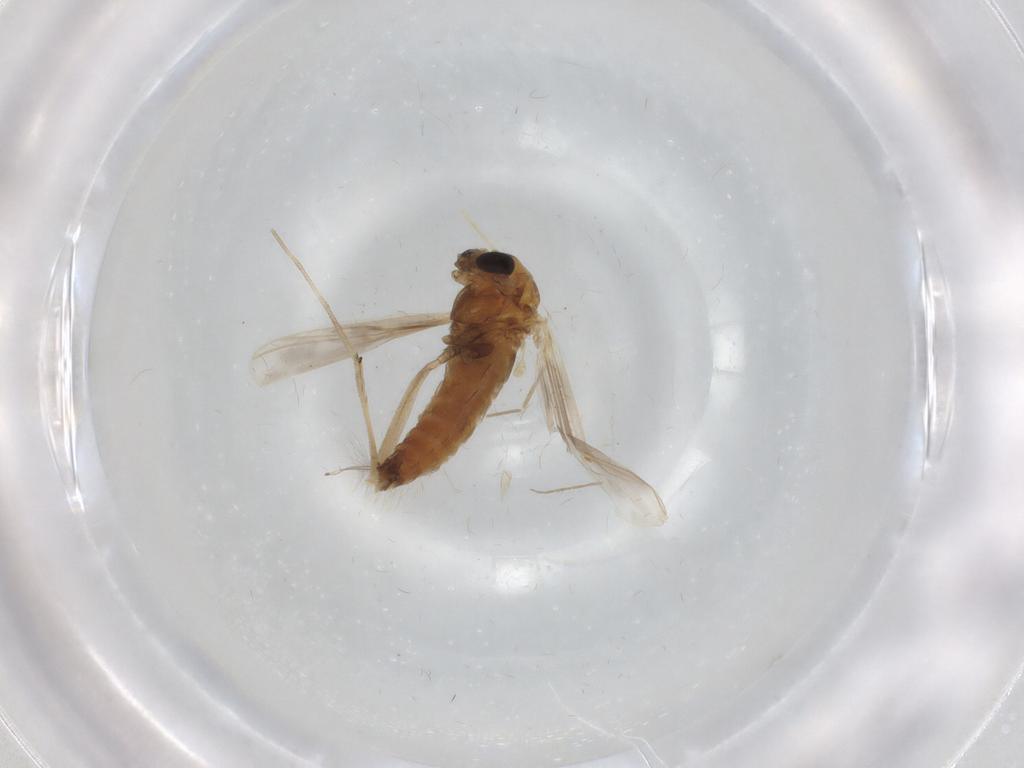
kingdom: Animalia
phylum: Arthropoda
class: Insecta
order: Diptera
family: Chironomidae
